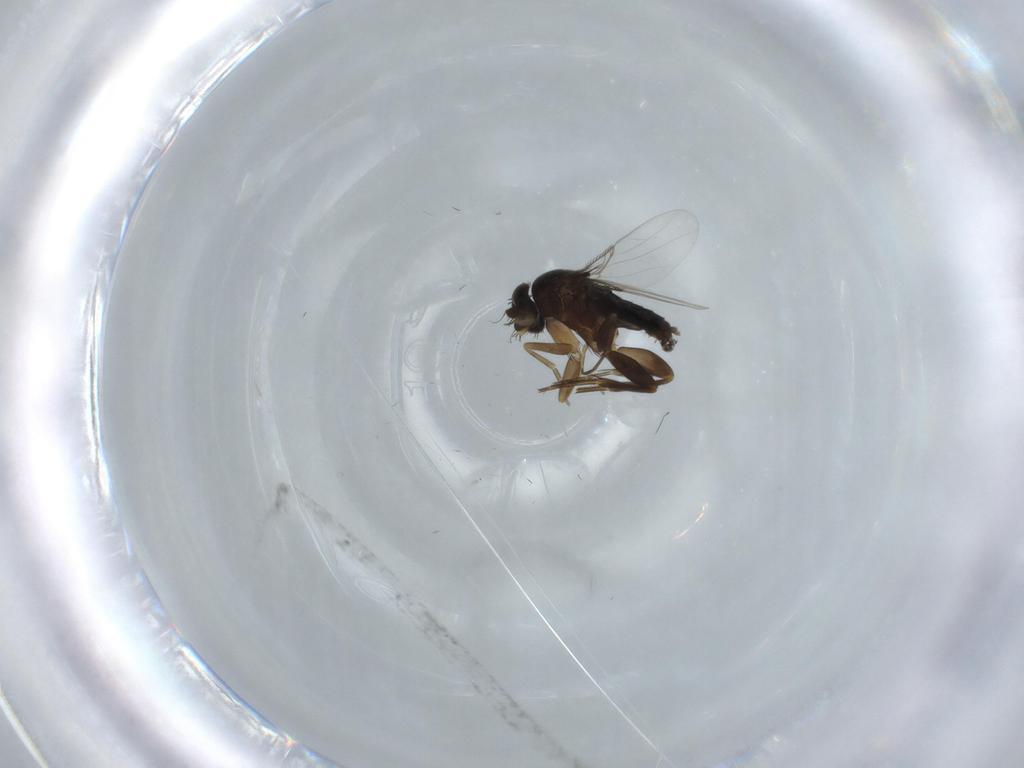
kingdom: Animalia
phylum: Arthropoda
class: Insecta
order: Diptera
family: Phoridae
